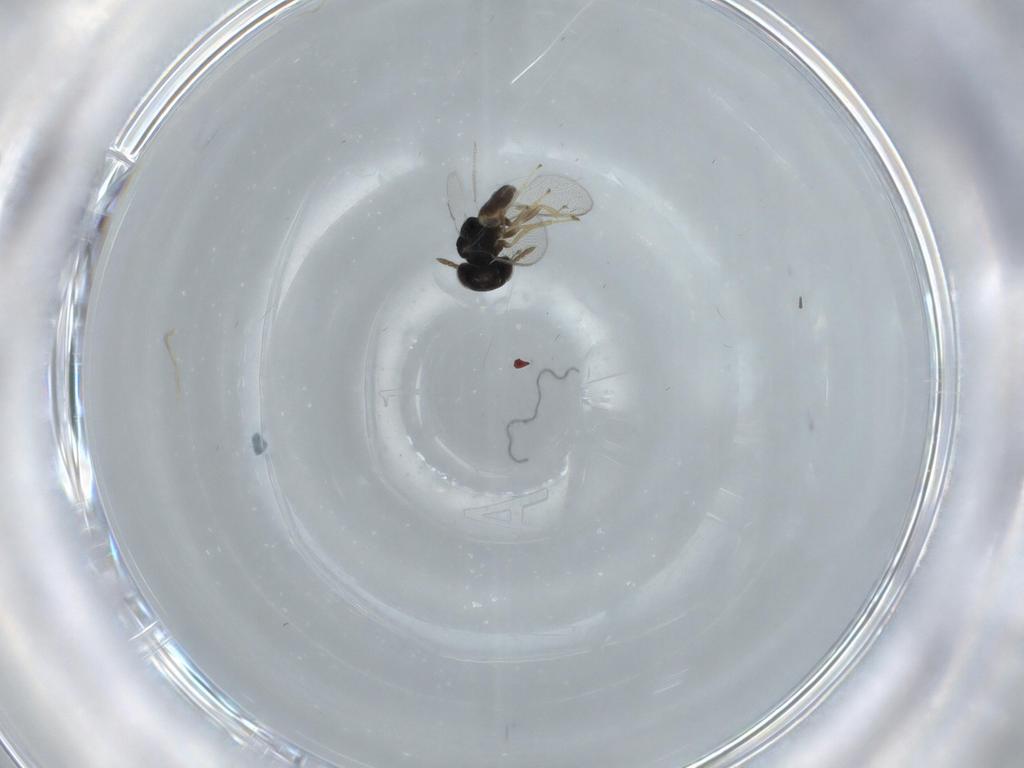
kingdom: Animalia
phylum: Arthropoda
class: Insecta
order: Hymenoptera
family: Pteromalidae
